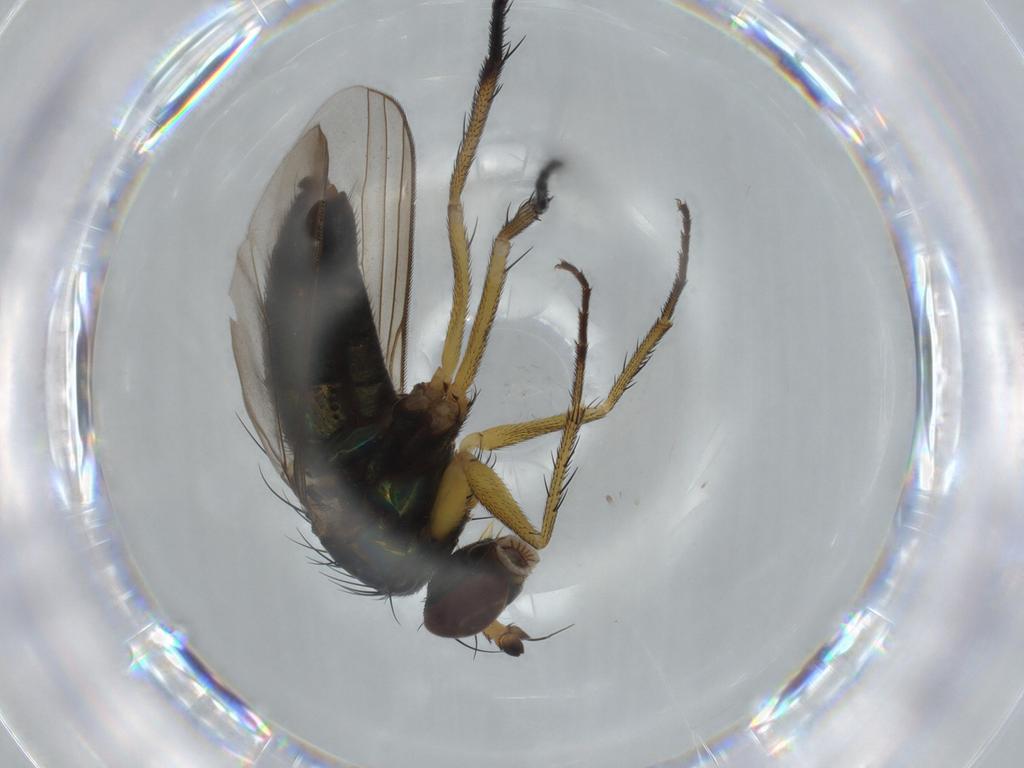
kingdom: Animalia
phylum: Arthropoda
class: Insecta
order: Diptera
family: Dolichopodidae
